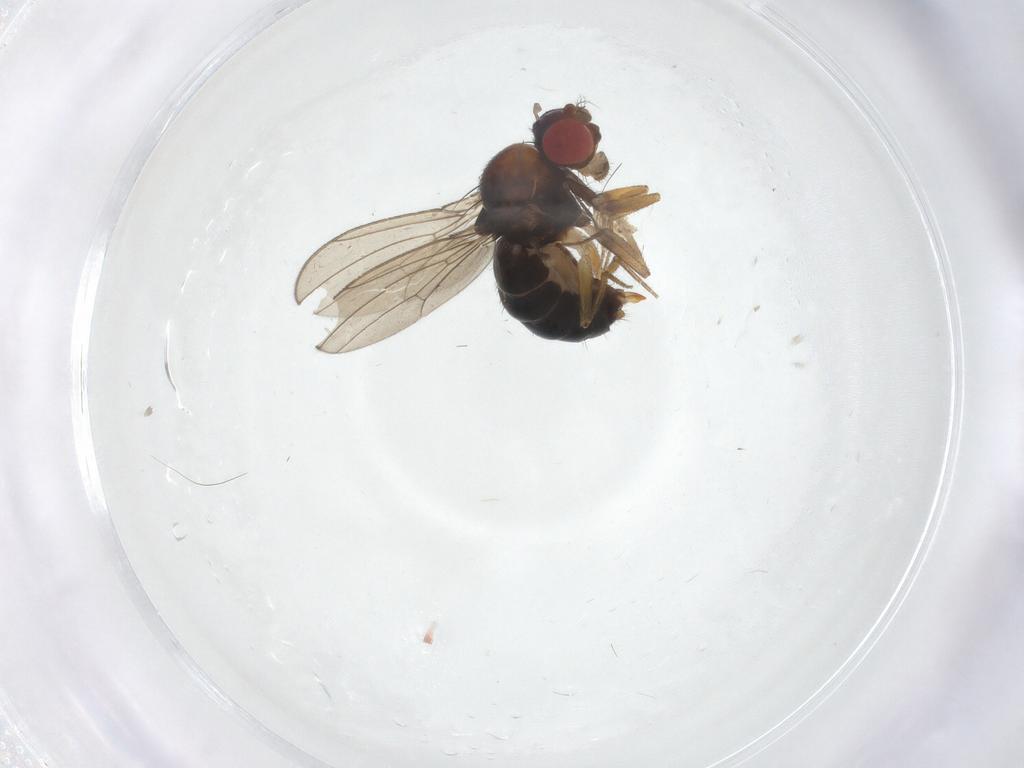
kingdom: Animalia
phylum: Arthropoda
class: Insecta
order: Diptera
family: Drosophilidae
